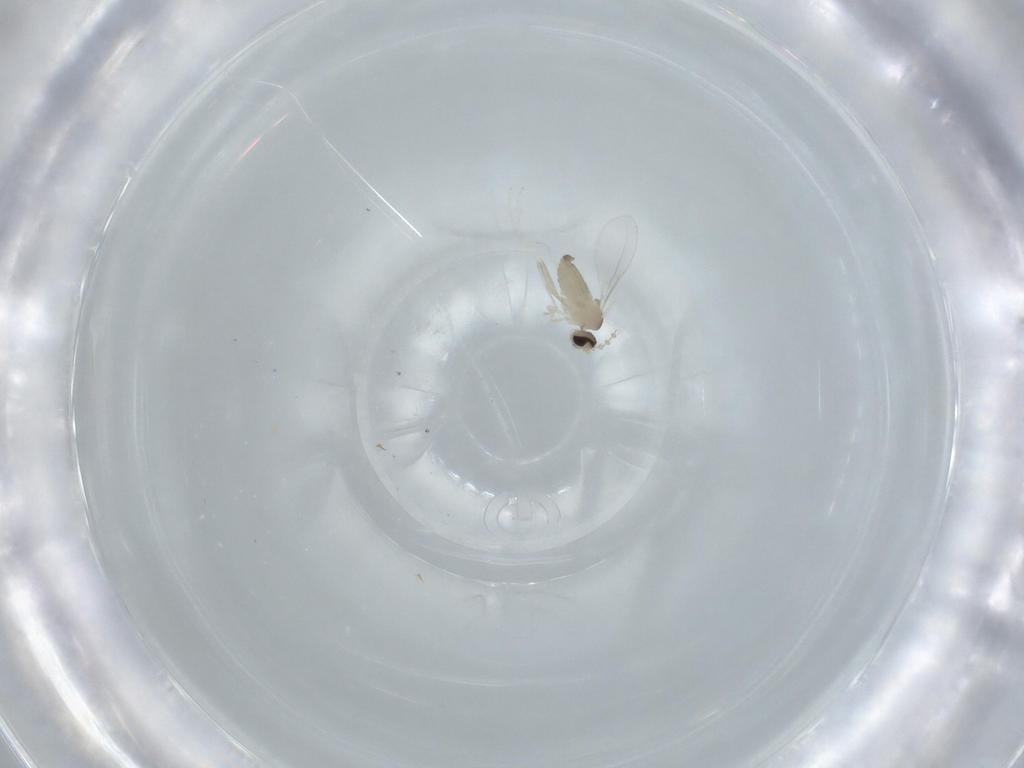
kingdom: Animalia
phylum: Arthropoda
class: Insecta
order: Diptera
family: Cecidomyiidae
